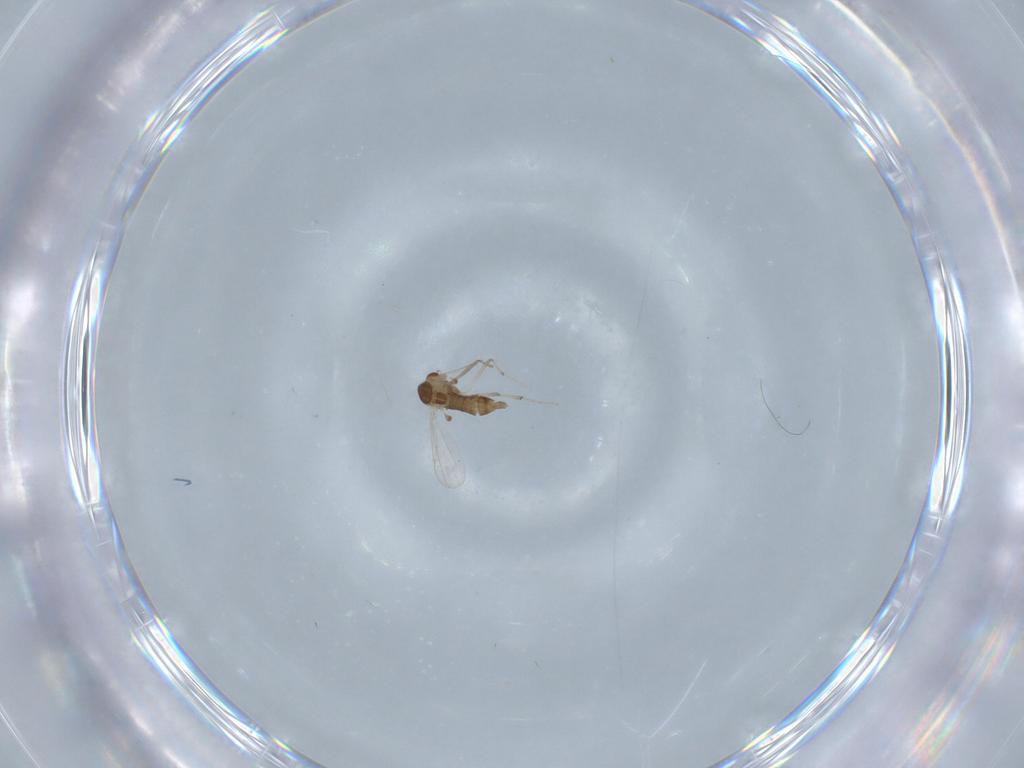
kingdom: Animalia
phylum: Arthropoda
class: Insecta
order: Diptera
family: Chironomidae
